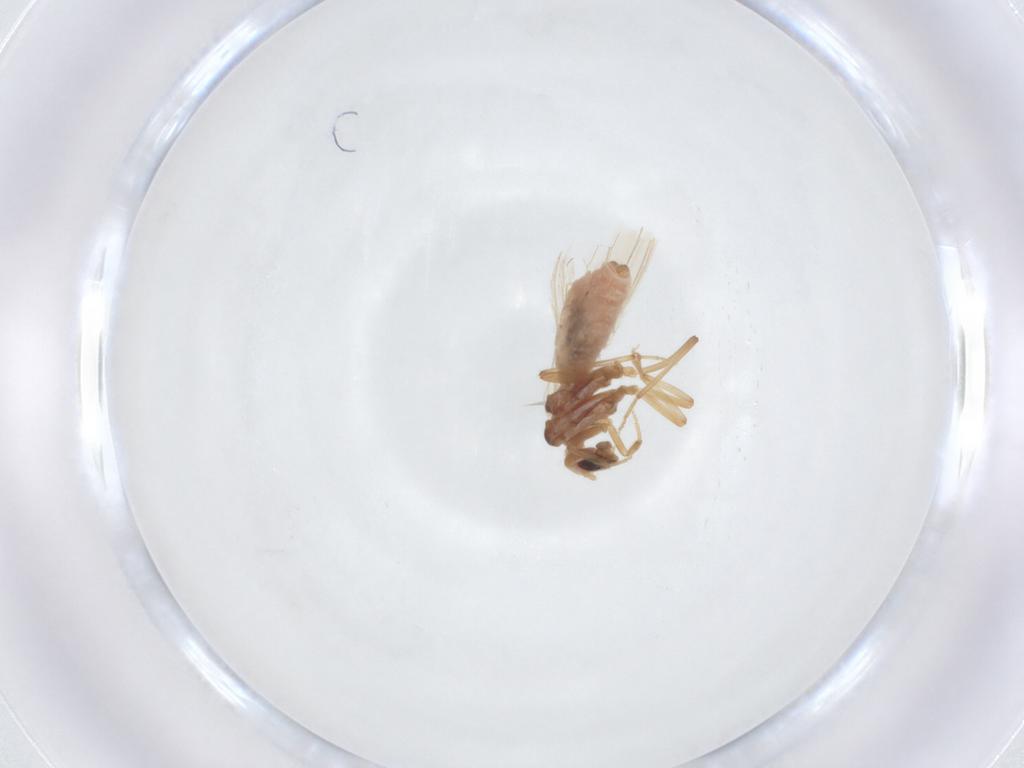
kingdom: Animalia
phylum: Arthropoda
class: Insecta
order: Neuroptera
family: Coniopterygidae
